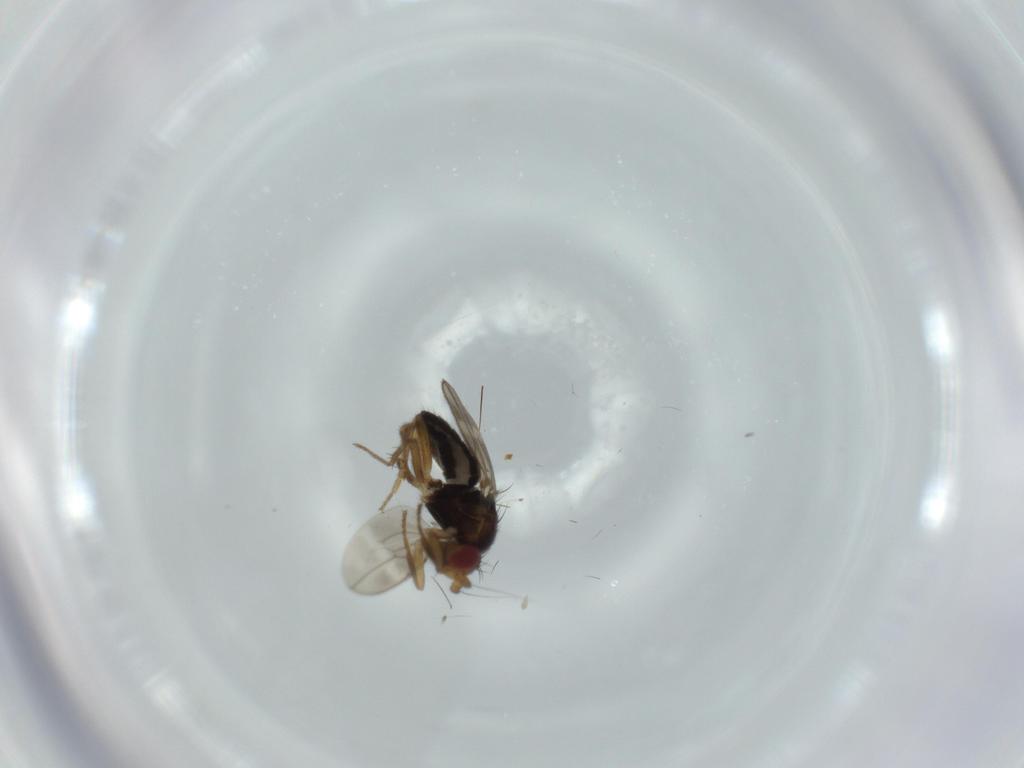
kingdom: Animalia
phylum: Arthropoda
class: Insecta
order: Diptera
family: Sphaeroceridae
